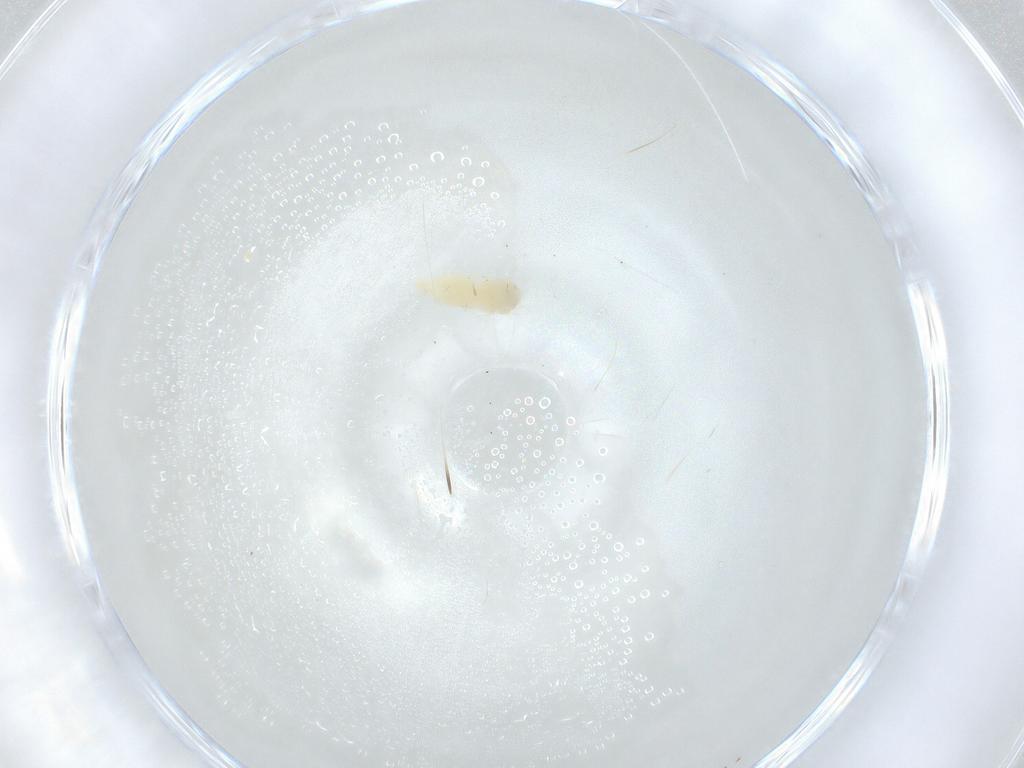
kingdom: Animalia
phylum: Arthropoda
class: Insecta
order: Hemiptera
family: Aleyrodidae
